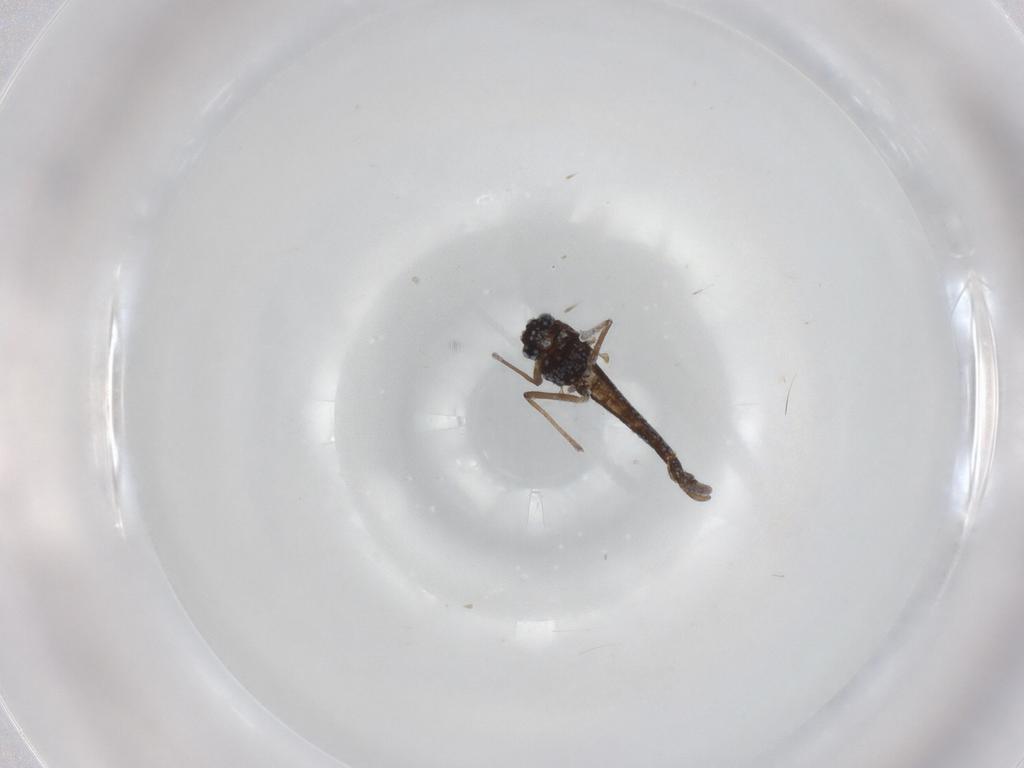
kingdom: Animalia
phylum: Arthropoda
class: Insecta
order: Diptera
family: Chironomidae
